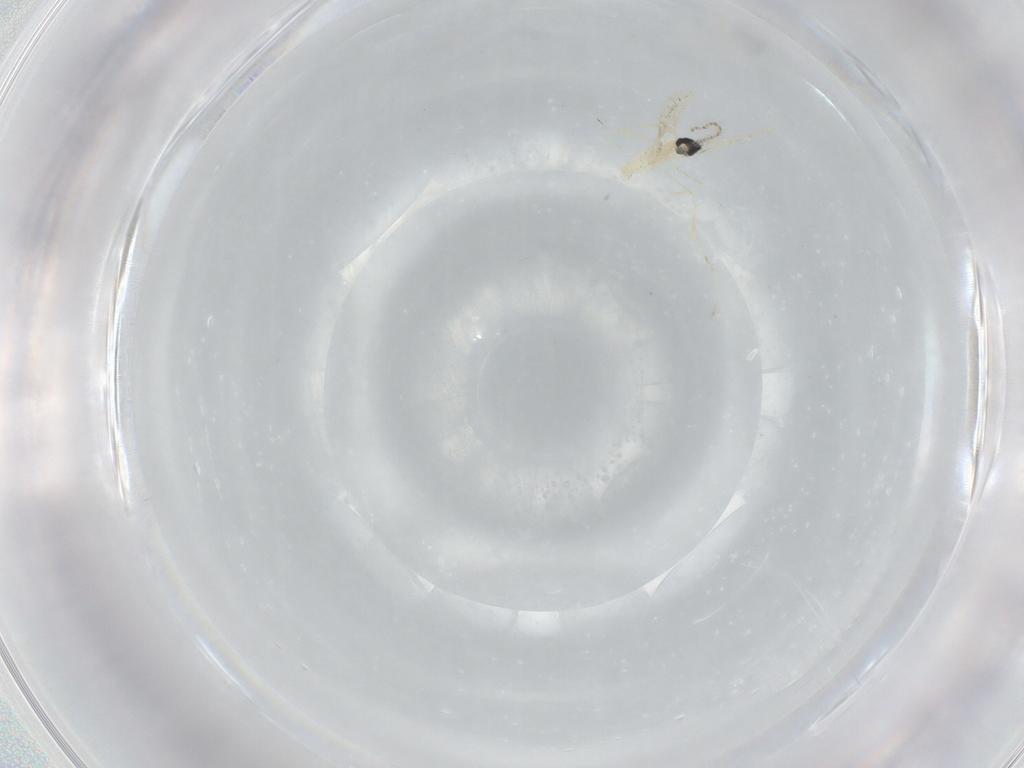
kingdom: Animalia
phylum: Arthropoda
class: Insecta
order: Diptera
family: Cecidomyiidae
